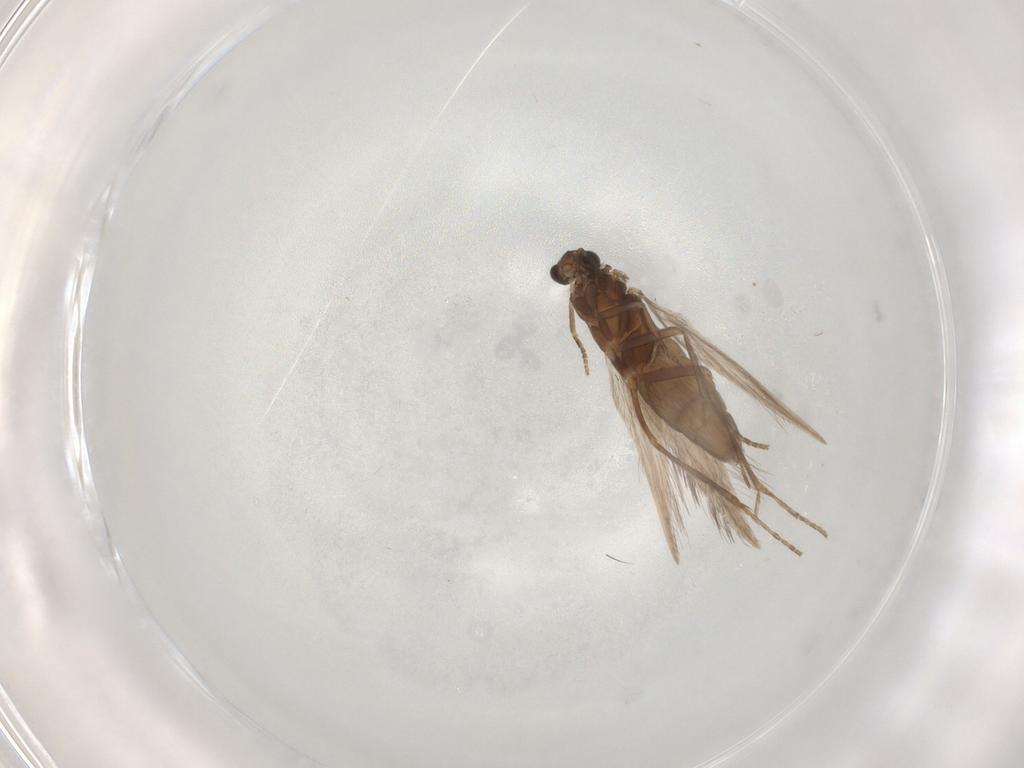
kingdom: Animalia
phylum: Arthropoda
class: Insecta
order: Trichoptera
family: Hydroptilidae
